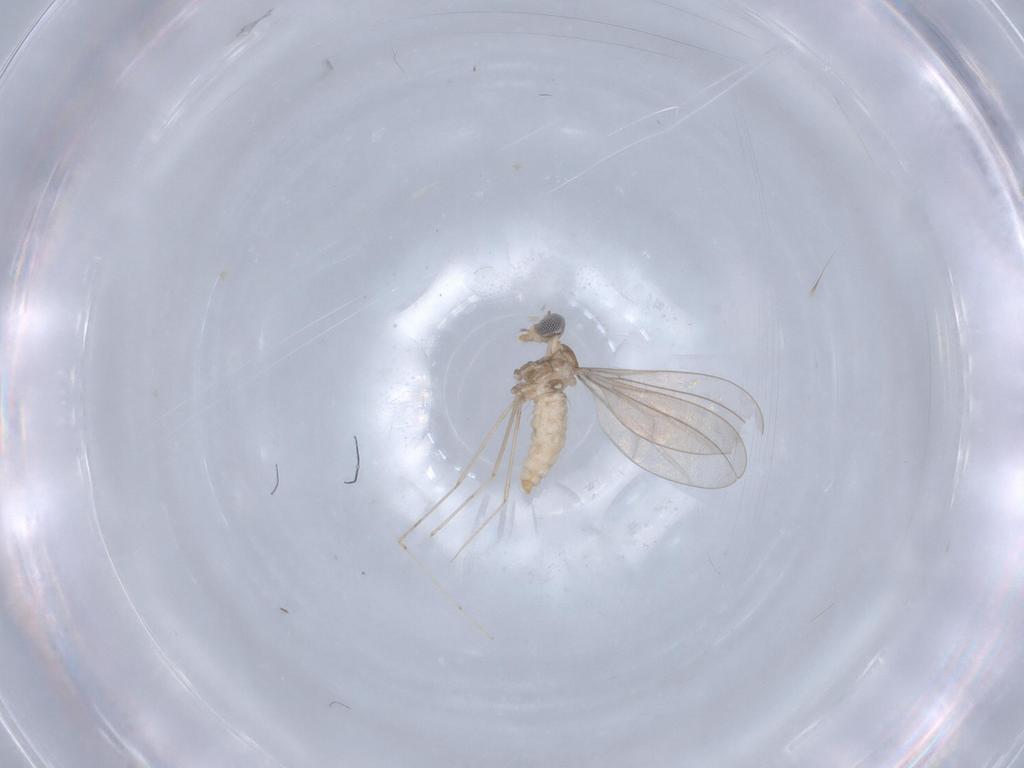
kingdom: Animalia
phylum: Arthropoda
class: Insecta
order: Diptera
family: Cecidomyiidae
